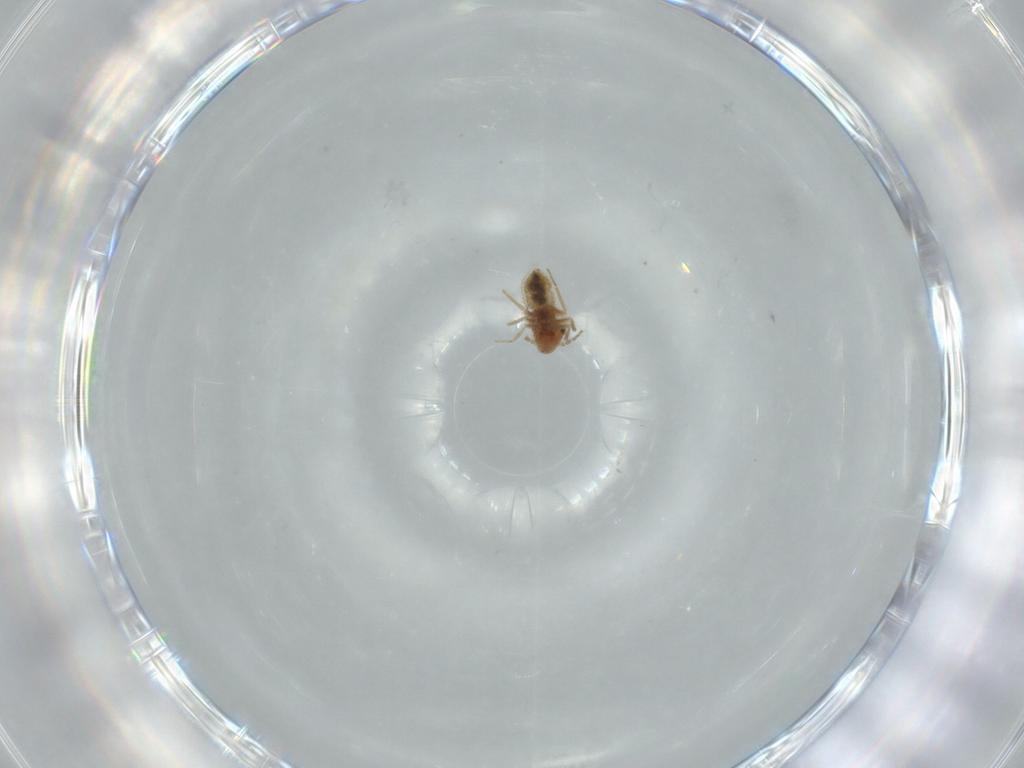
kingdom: Animalia
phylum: Arthropoda
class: Insecta
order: Psocodea
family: Lepidopsocidae
